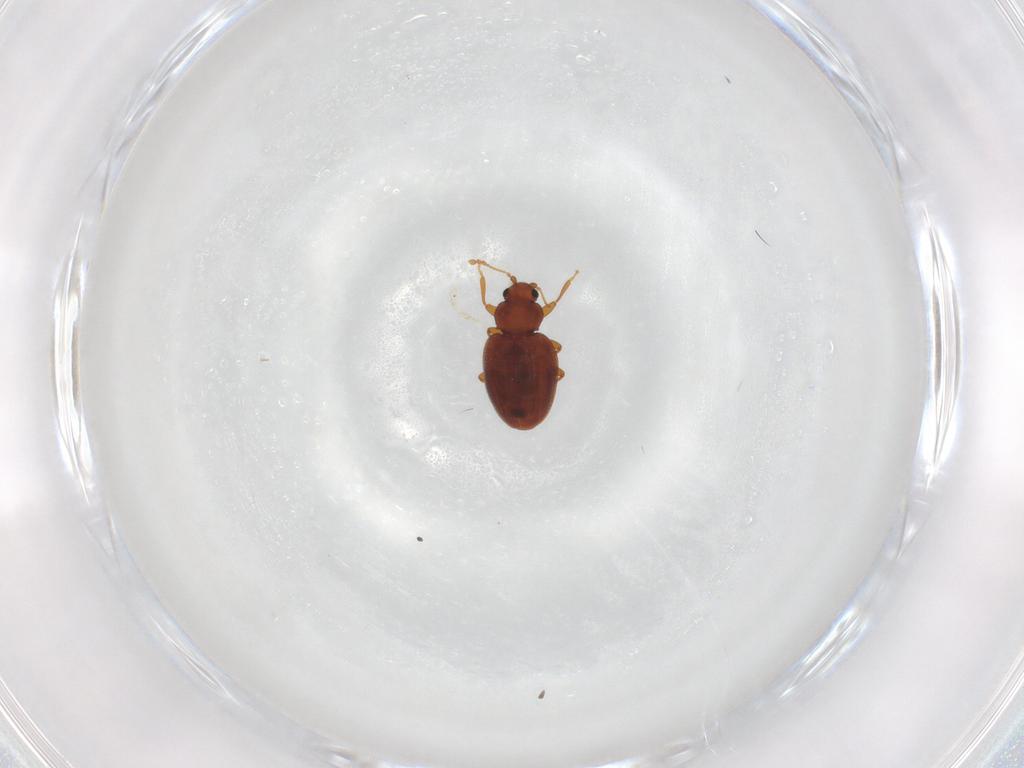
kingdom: Animalia
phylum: Arthropoda
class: Insecta
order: Coleoptera
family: Latridiidae
